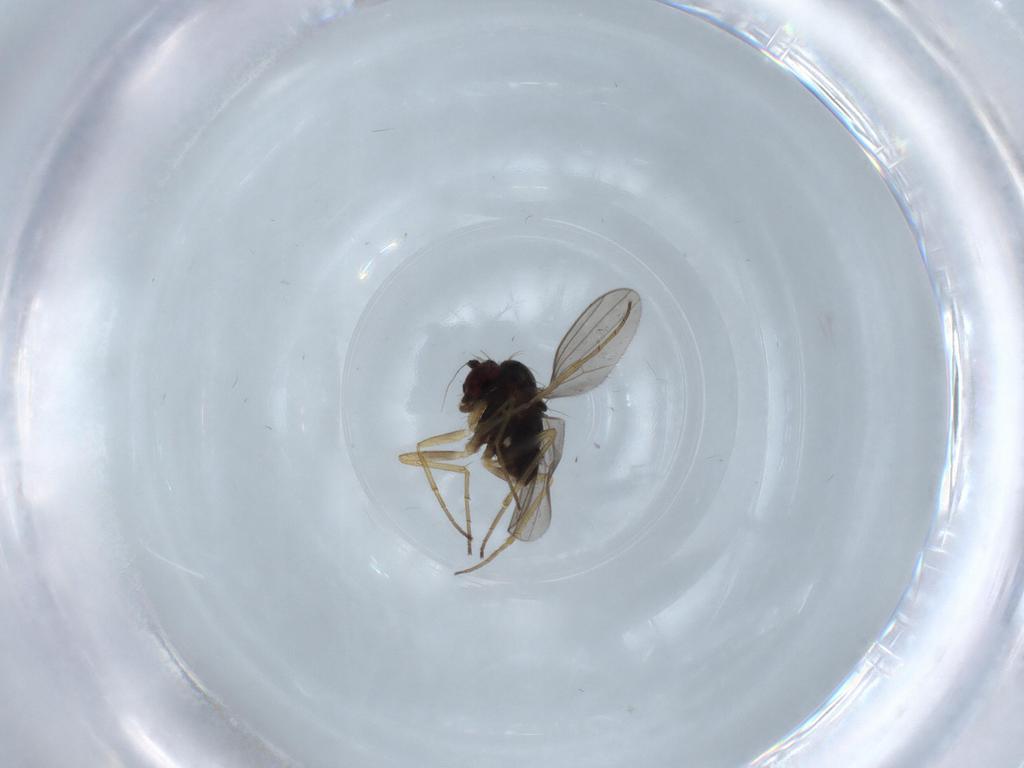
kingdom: Animalia
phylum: Arthropoda
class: Insecta
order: Diptera
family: Dolichopodidae
